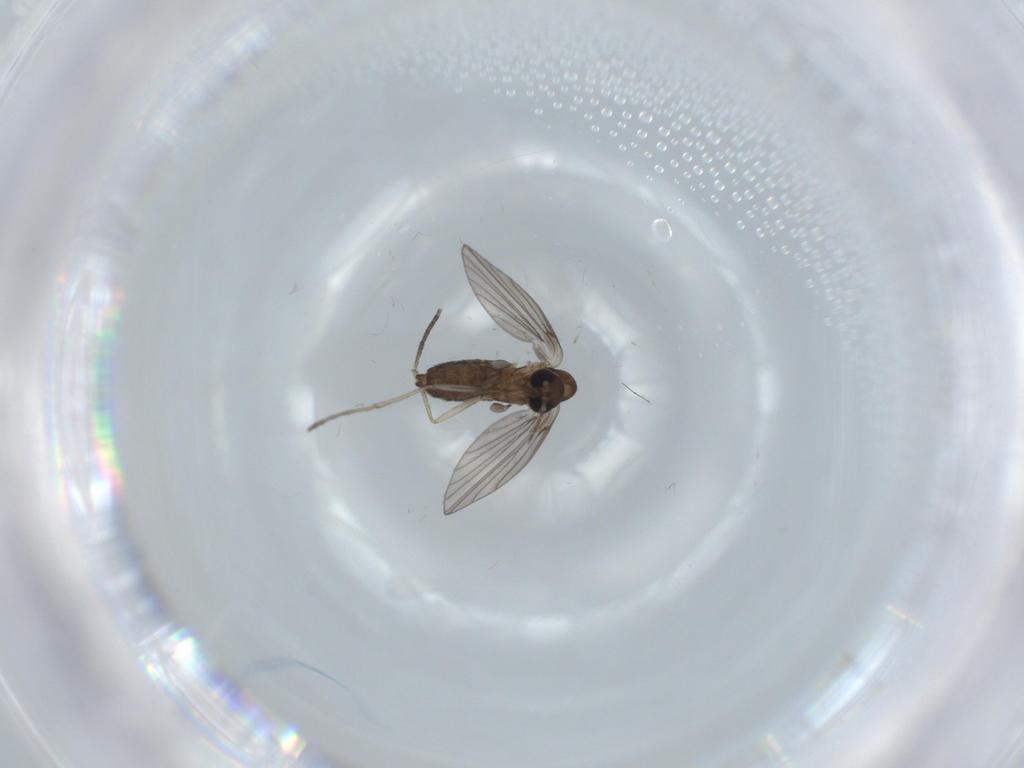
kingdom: Animalia
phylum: Arthropoda
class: Insecta
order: Diptera
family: Psychodidae
